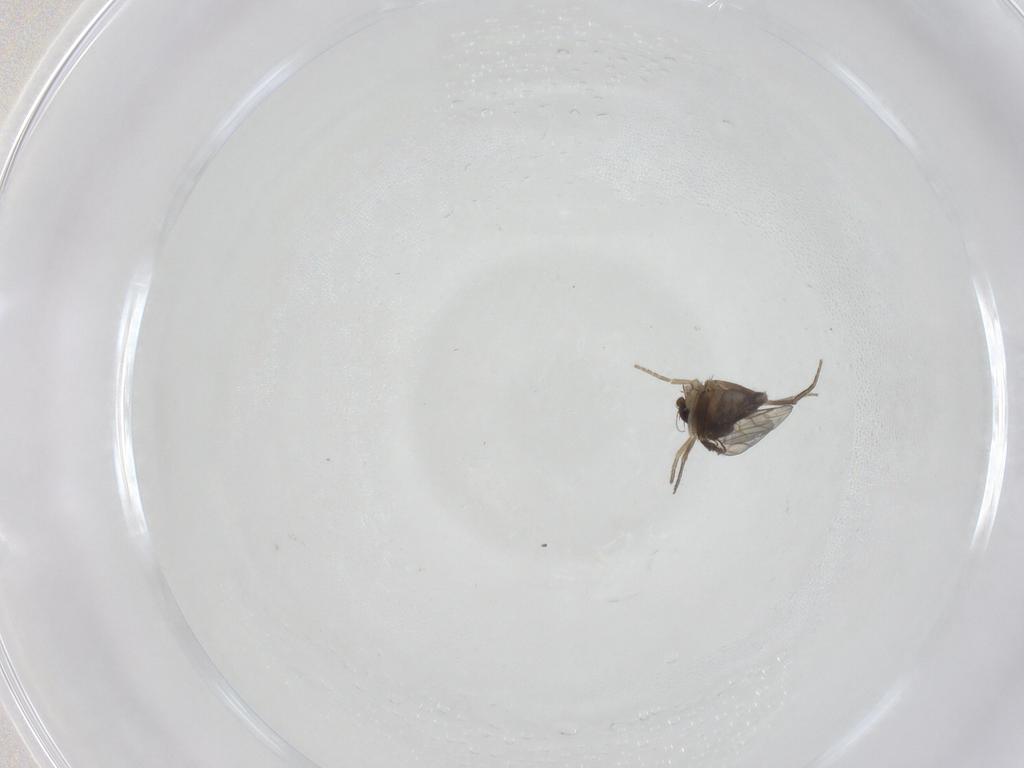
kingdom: Animalia
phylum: Arthropoda
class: Insecta
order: Diptera
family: Phoridae
